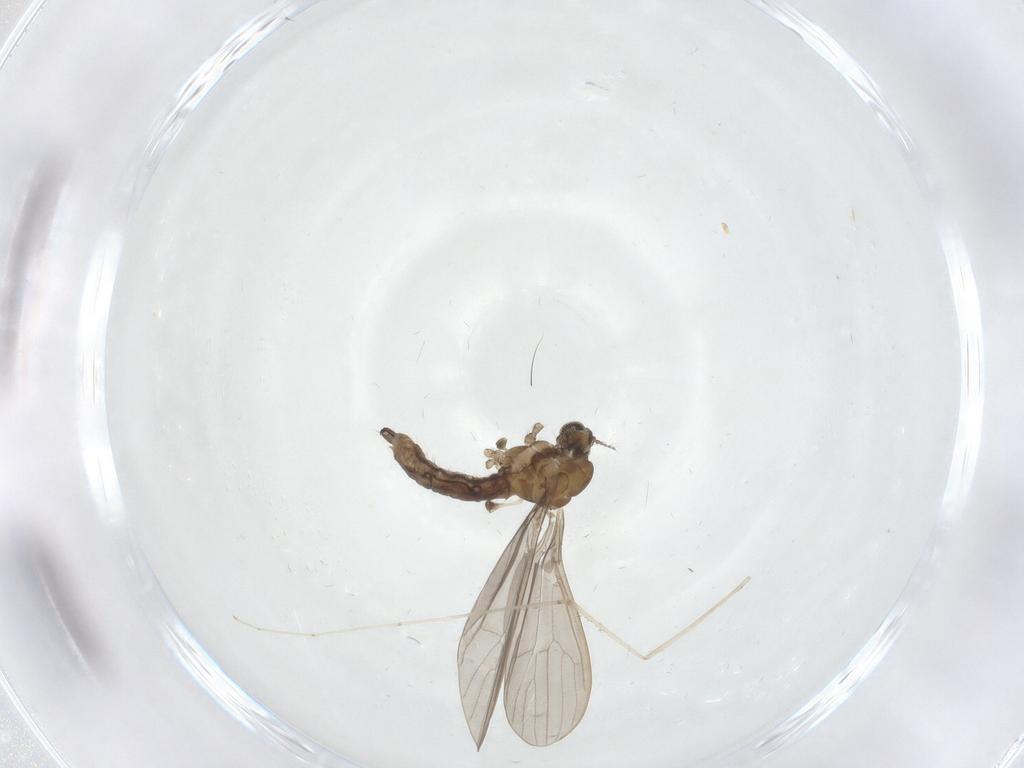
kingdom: Animalia
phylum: Arthropoda
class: Insecta
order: Diptera
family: Limoniidae
